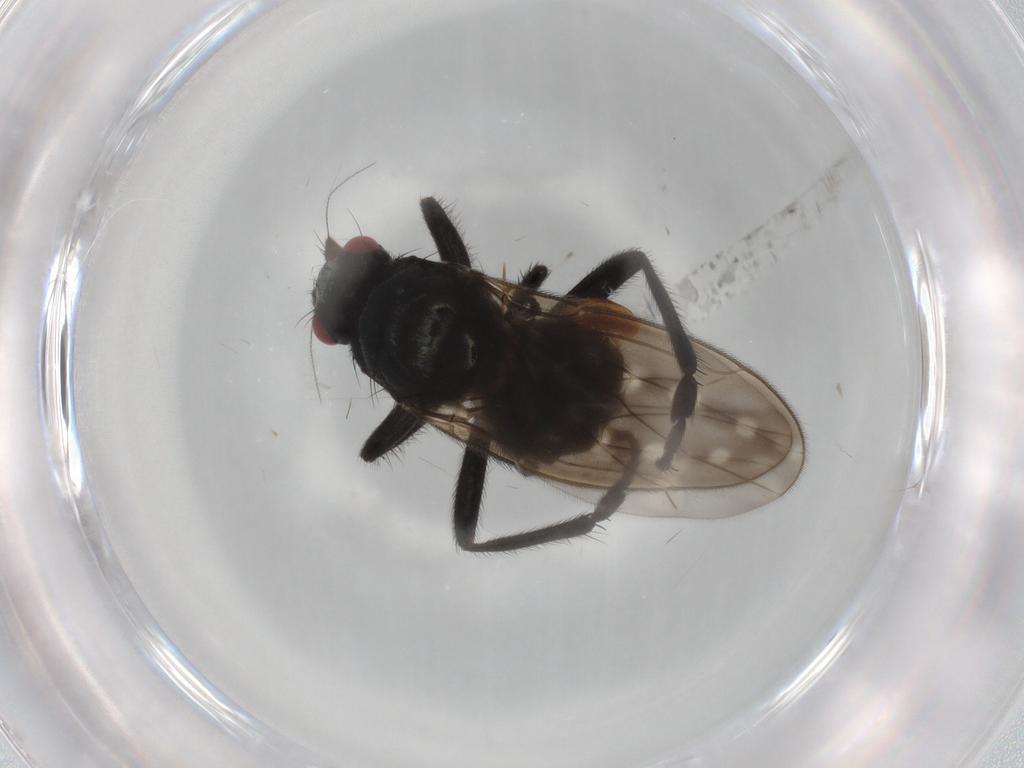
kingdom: Animalia
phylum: Arthropoda
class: Insecta
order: Diptera
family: Sphaeroceridae
